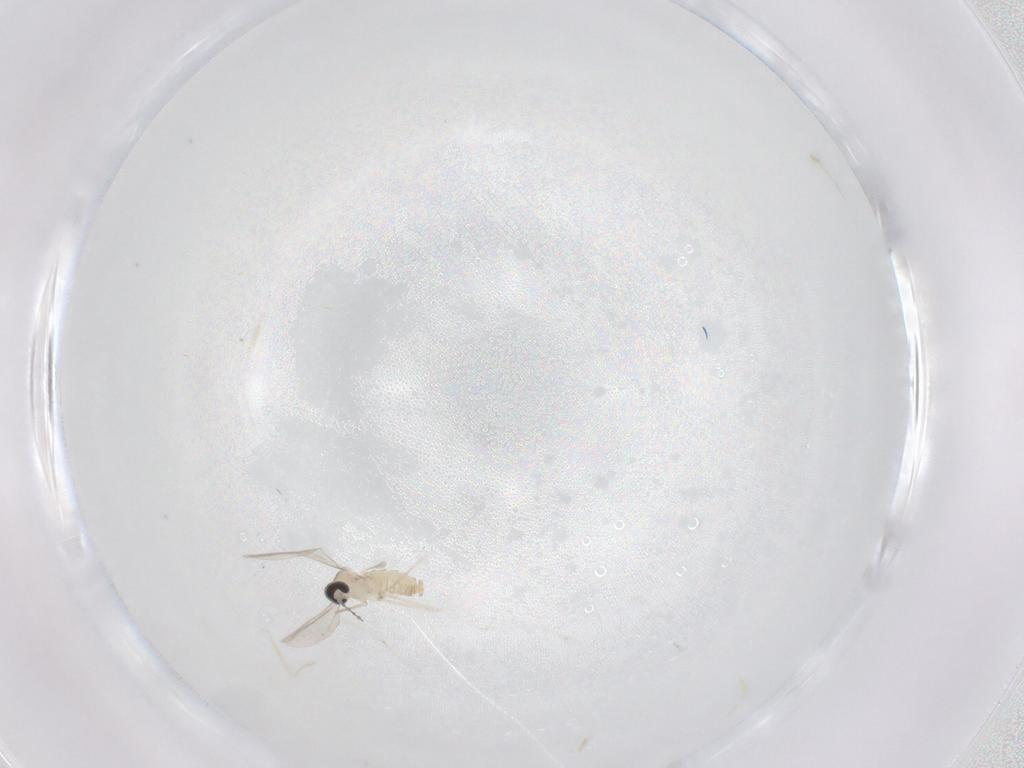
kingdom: Animalia
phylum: Arthropoda
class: Insecta
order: Diptera
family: Cecidomyiidae
